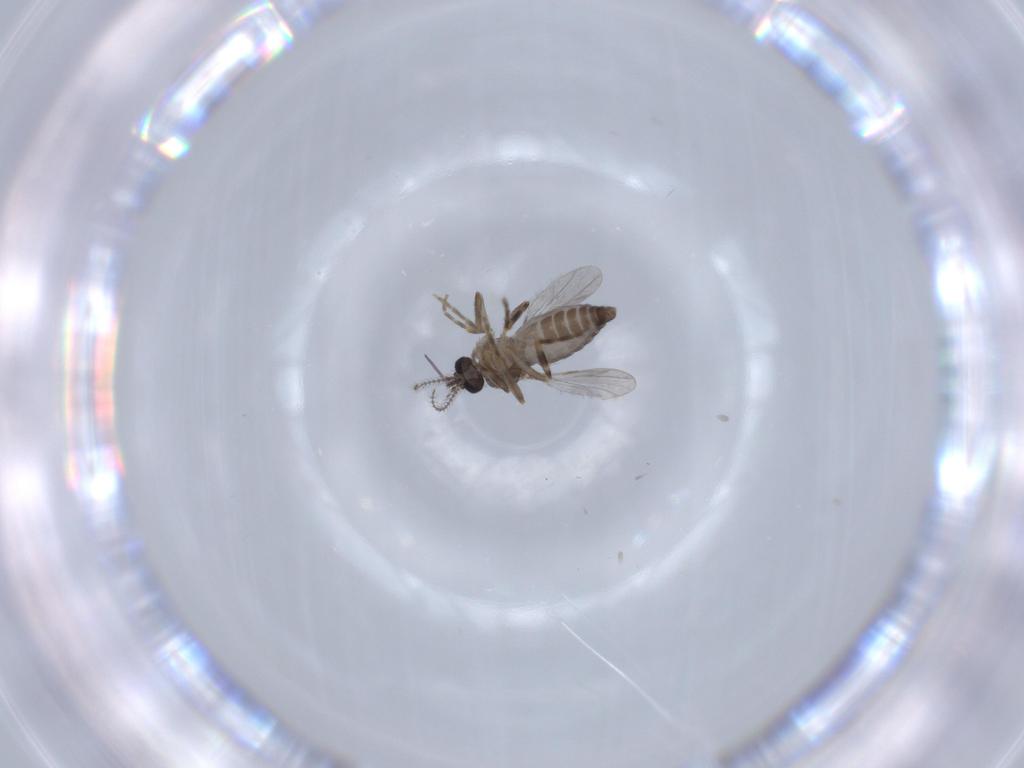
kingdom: Animalia
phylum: Arthropoda
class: Insecta
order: Diptera
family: Ceratopogonidae
